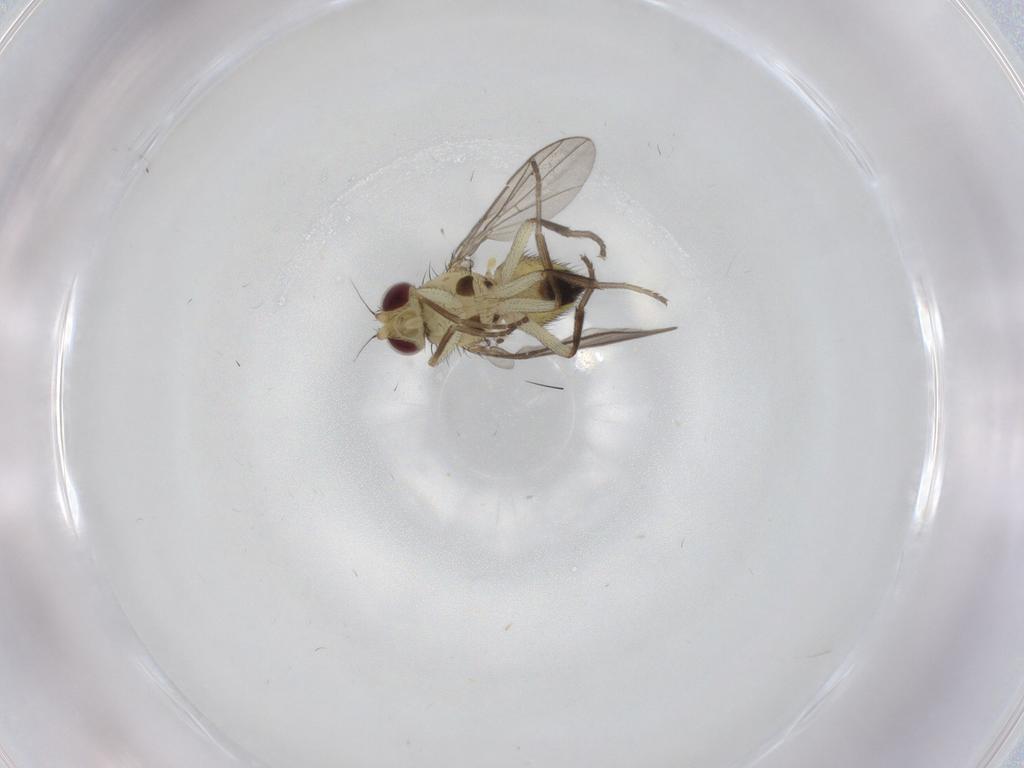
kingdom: Animalia
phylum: Arthropoda
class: Insecta
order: Diptera
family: Agromyzidae
